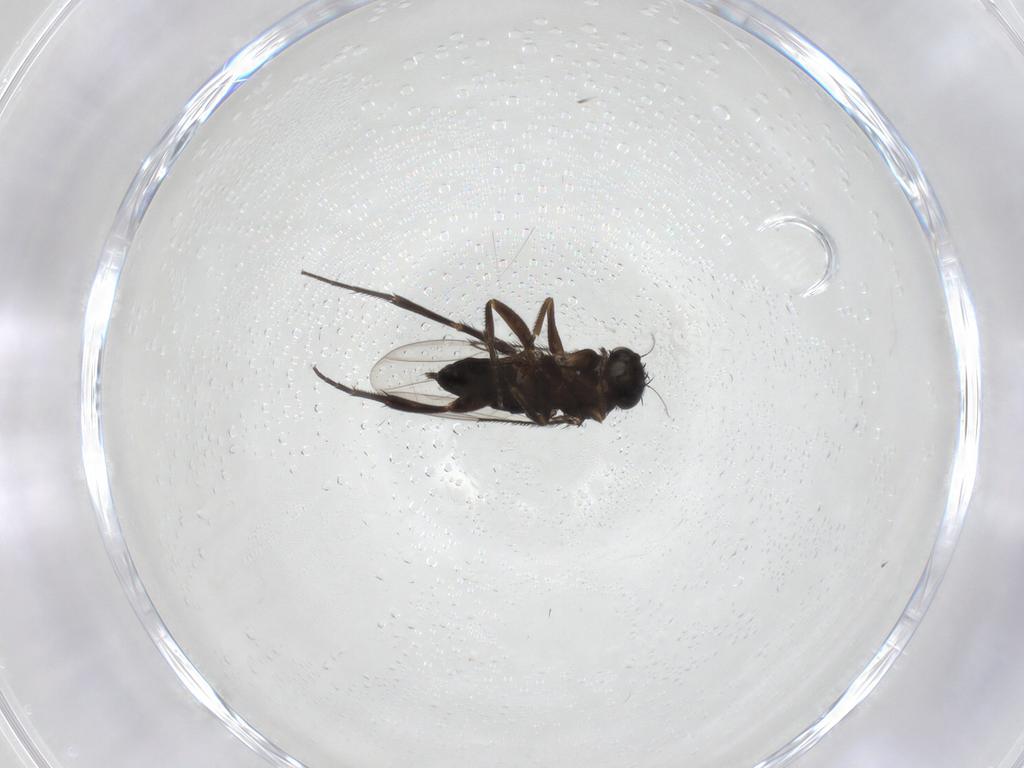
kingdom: Animalia
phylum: Arthropoda
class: Insecta
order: Diptera
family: Phoridae
